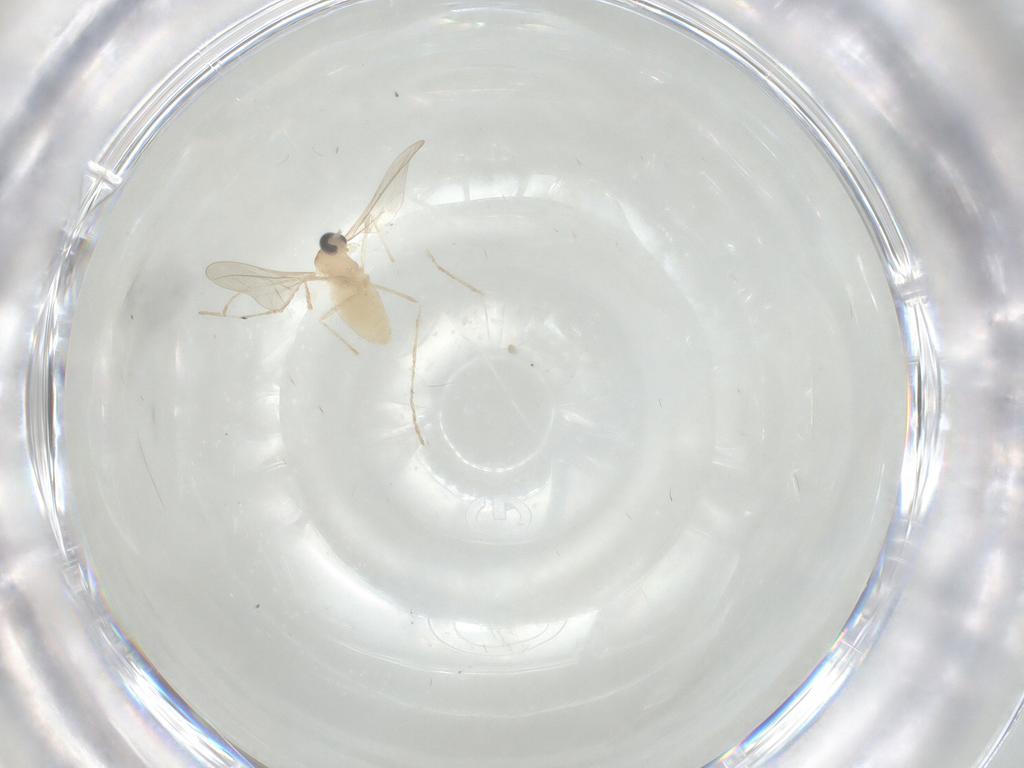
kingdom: Animalia
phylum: Arthropoda
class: Insecta
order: Diptera
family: Cecidomyiidae
